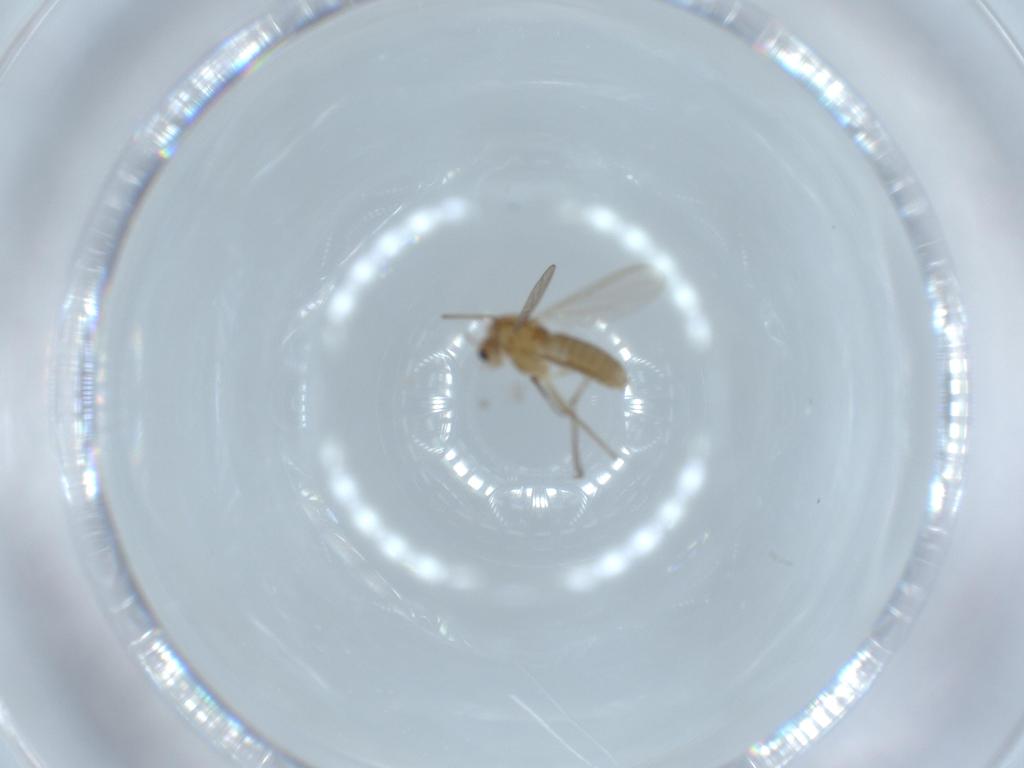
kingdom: Animalia
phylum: Arthropoda
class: Insecta
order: Diptera
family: Chironomidae
